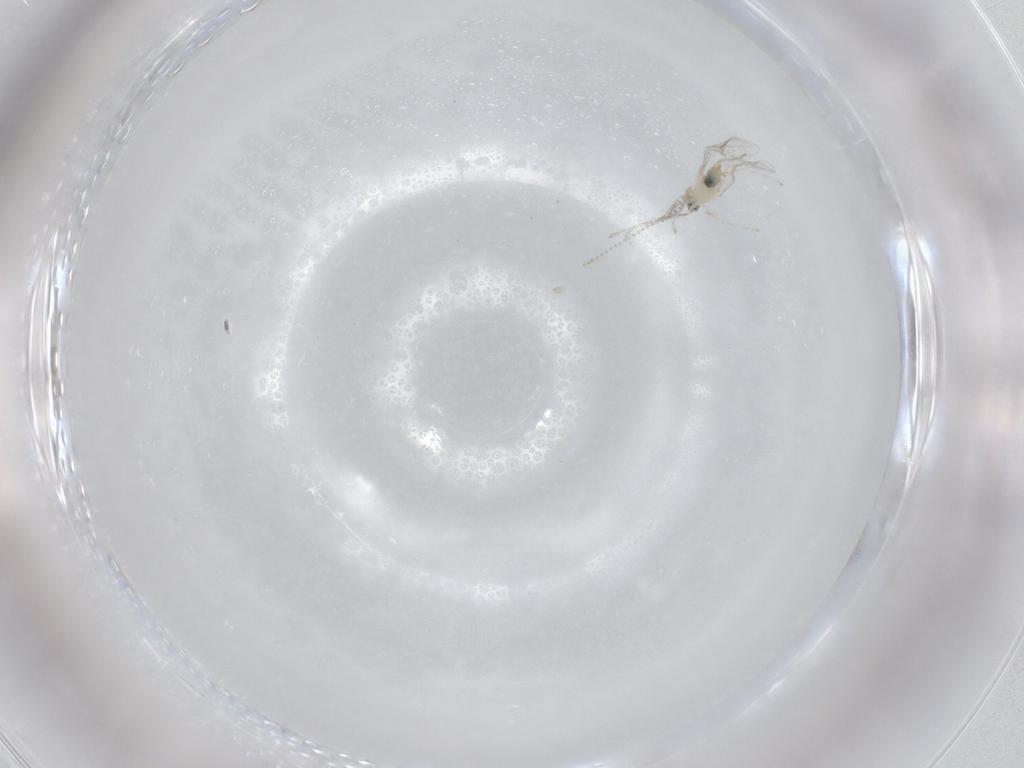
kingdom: Animalia
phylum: Arthropoda
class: Insecta
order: Diptera
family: Cecidomyiidae
